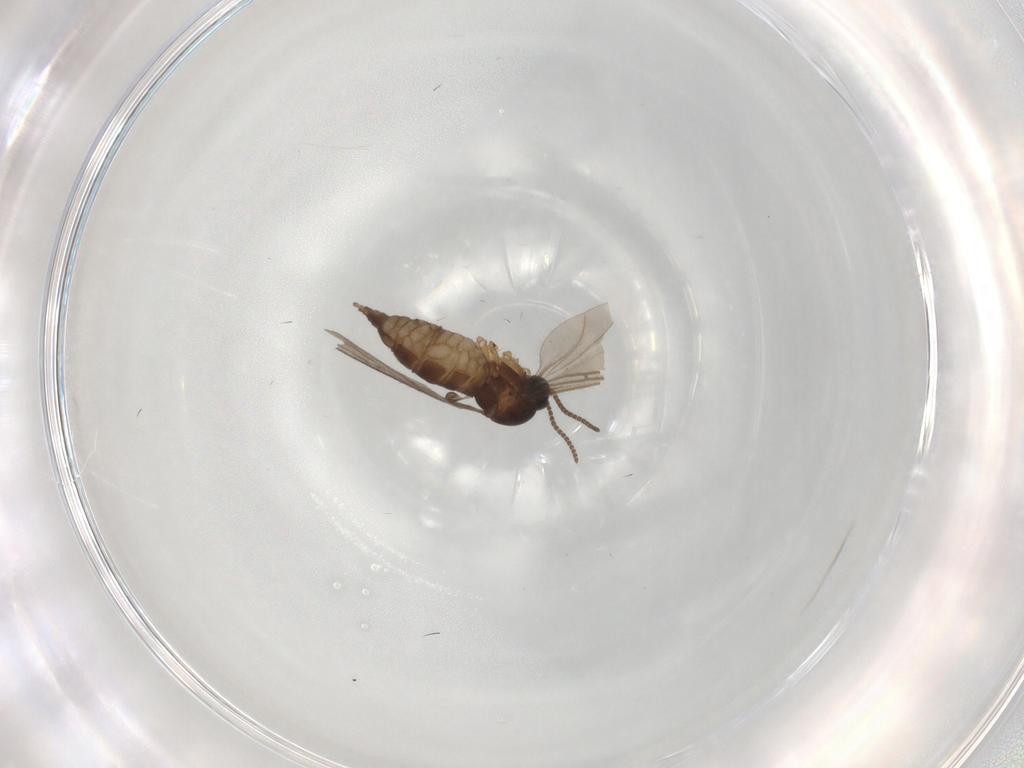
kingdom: Animalia
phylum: Arthropoda
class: Insecta
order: Diptera
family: Sciaridae
